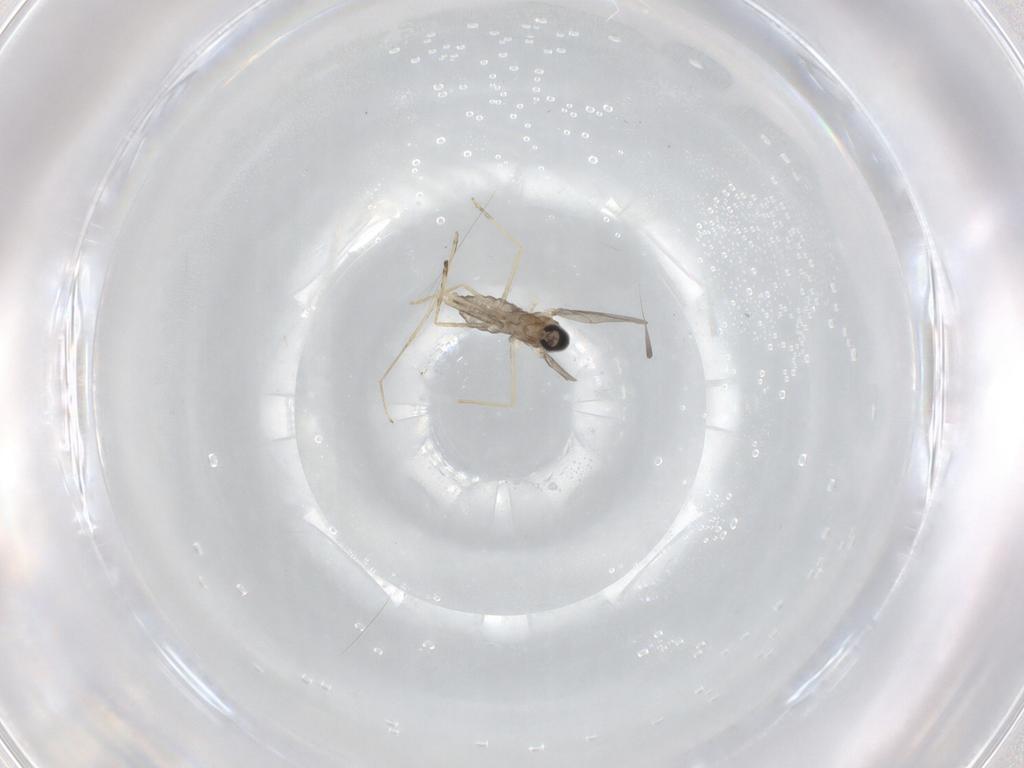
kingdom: Animalia
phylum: Arthropoda
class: Insecta
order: Diptera
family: Cecidomyiidae
